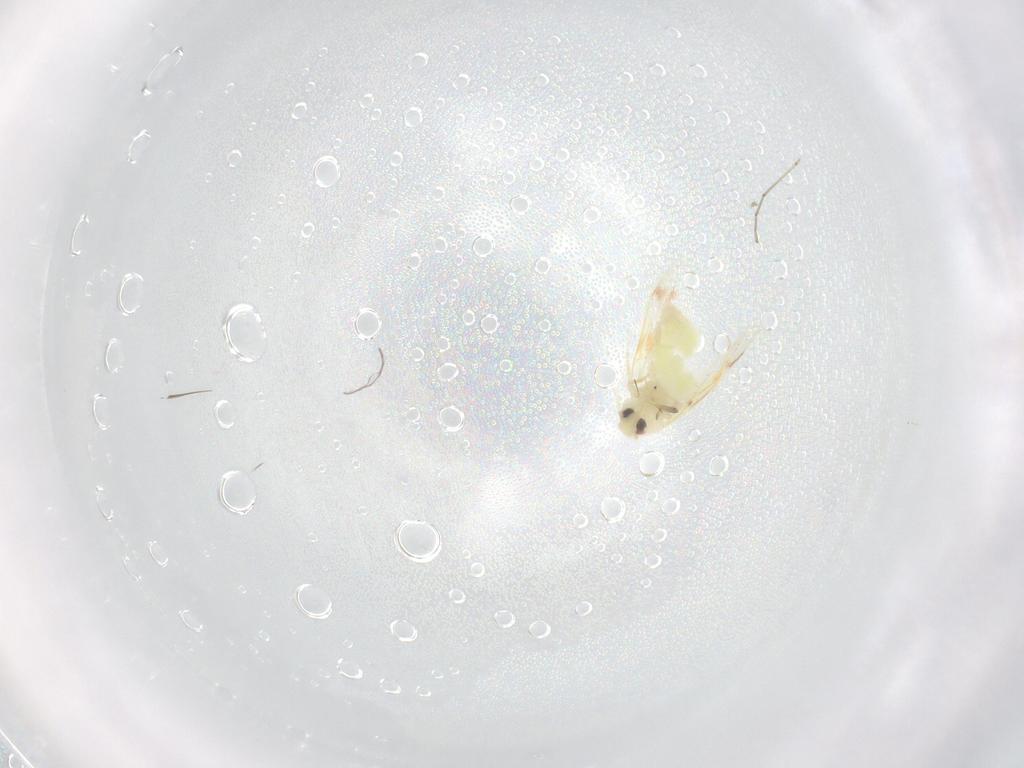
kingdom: Animalia
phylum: Arthropoda
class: Insecta
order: Hemiptera
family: Aleyrodidae
